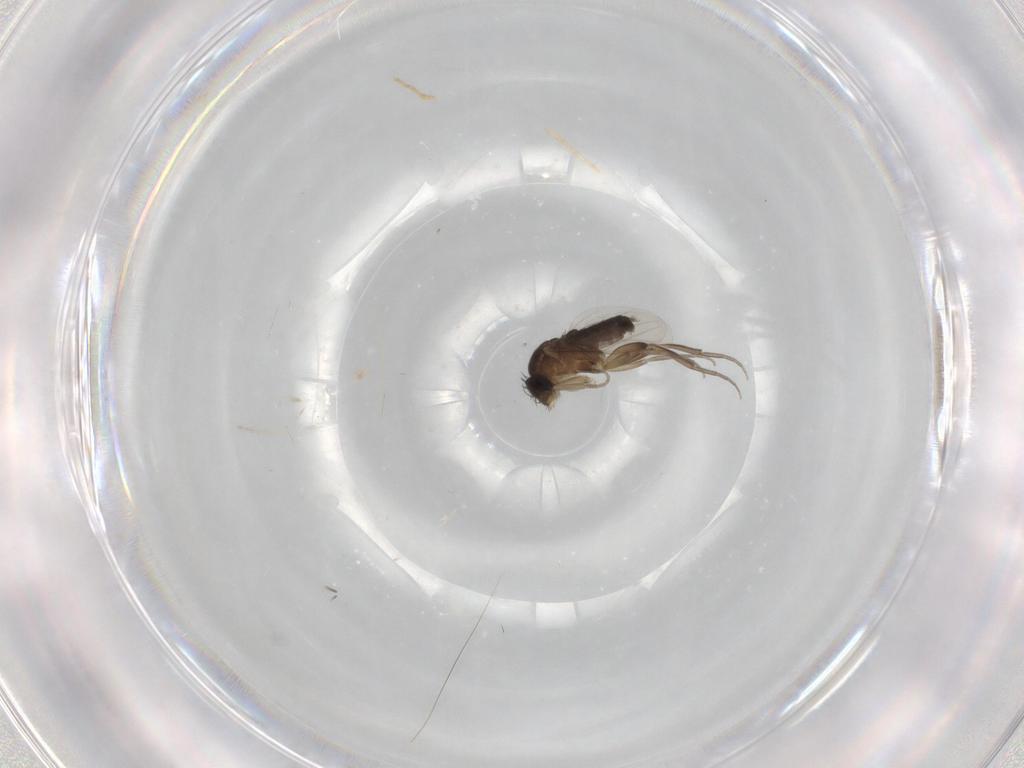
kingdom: Animalia
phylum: Arthropoda
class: Insecta
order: Diptera
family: Cecidomyiidae
